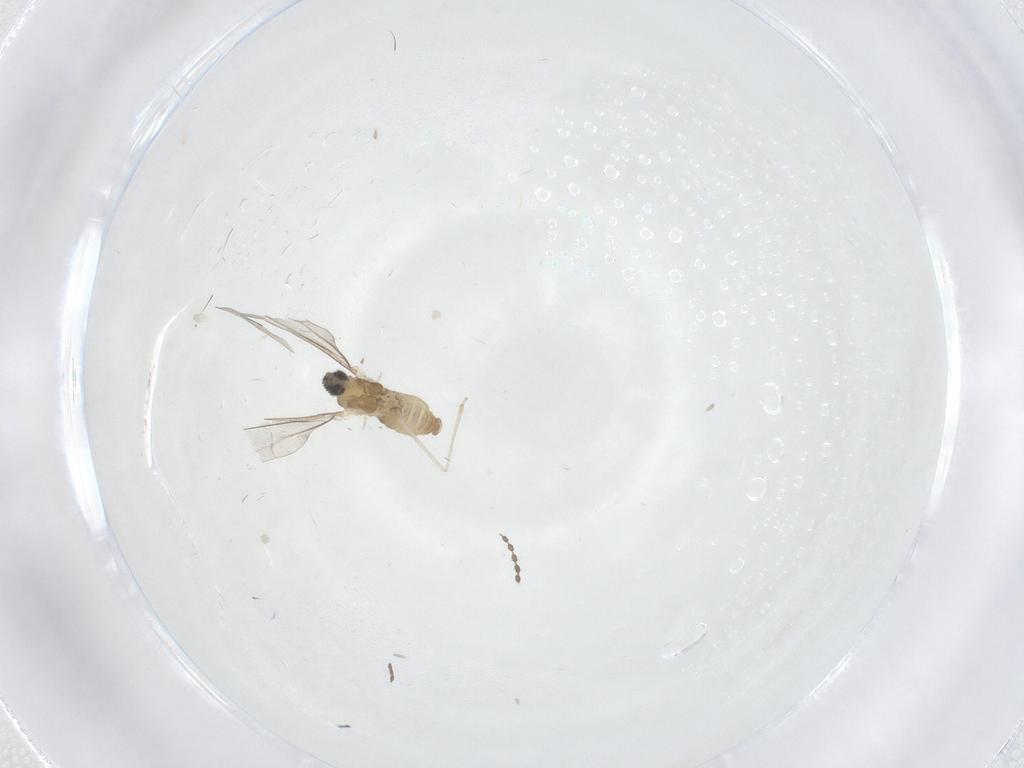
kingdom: Animalia
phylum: Arthropoda
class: Insecta
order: Diptera
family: Cecidomyiidae
